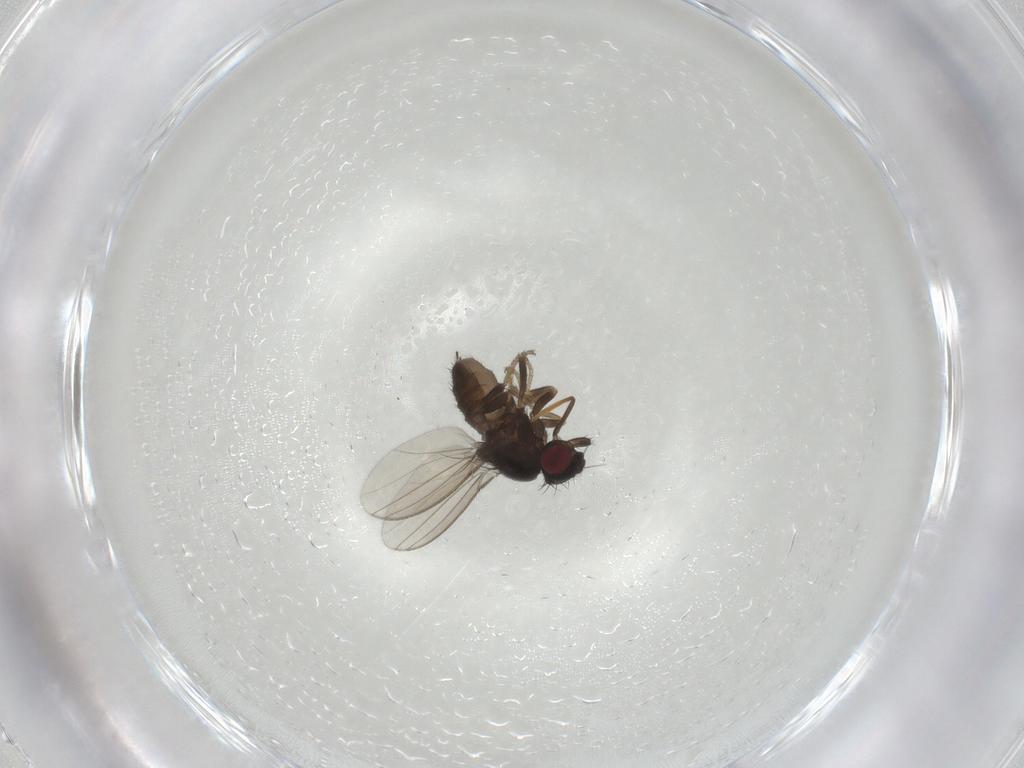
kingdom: Animalia
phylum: Arthropoda
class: Insecta
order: Diptera
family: Milichiidae
